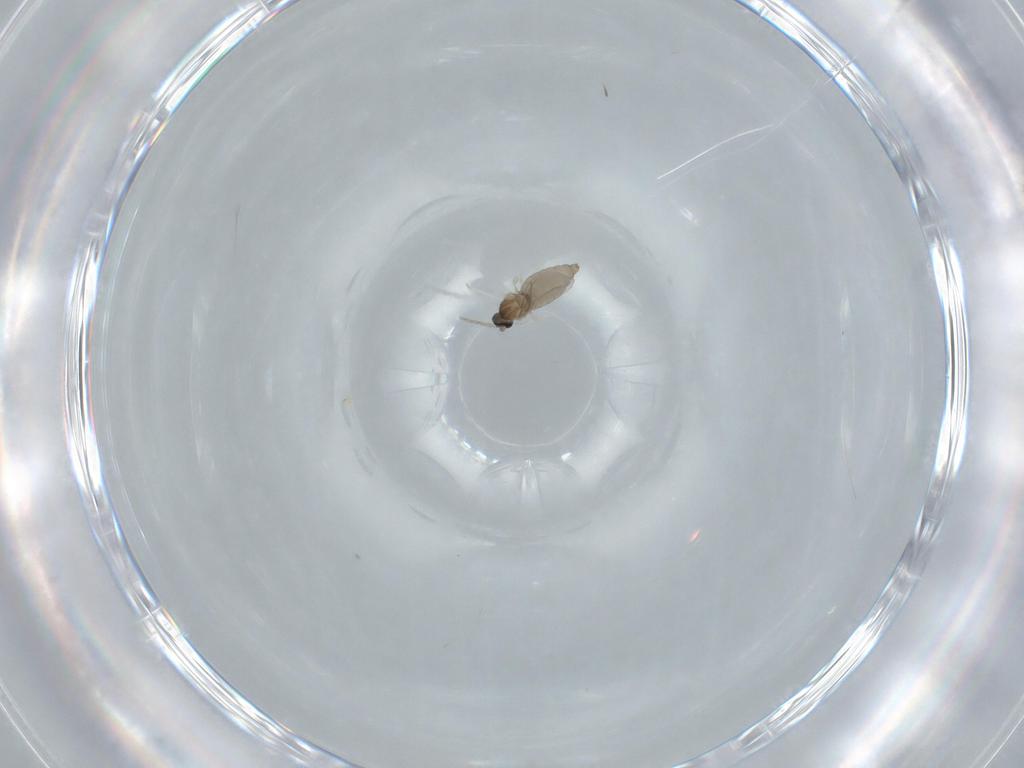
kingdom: Animalia
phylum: Arthropoda
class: Insecta
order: Diptera
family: Cecidomyiidae
